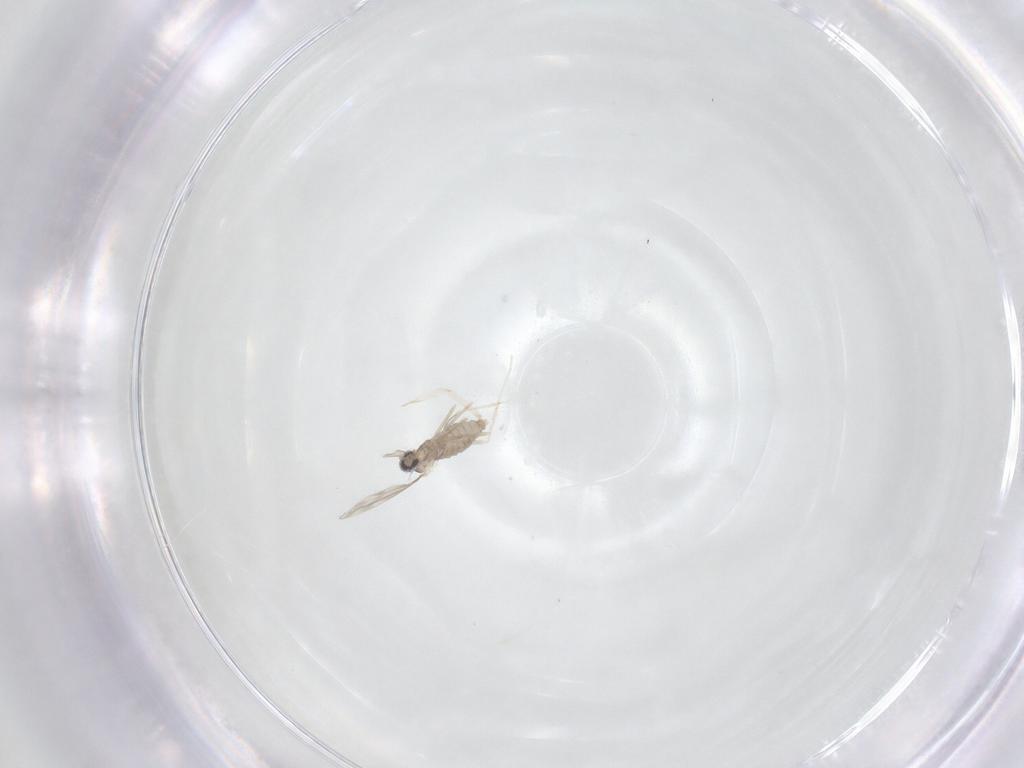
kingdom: Animalia
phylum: Arthropoda
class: Insecta
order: Diptera
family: Cecidomyiidae
